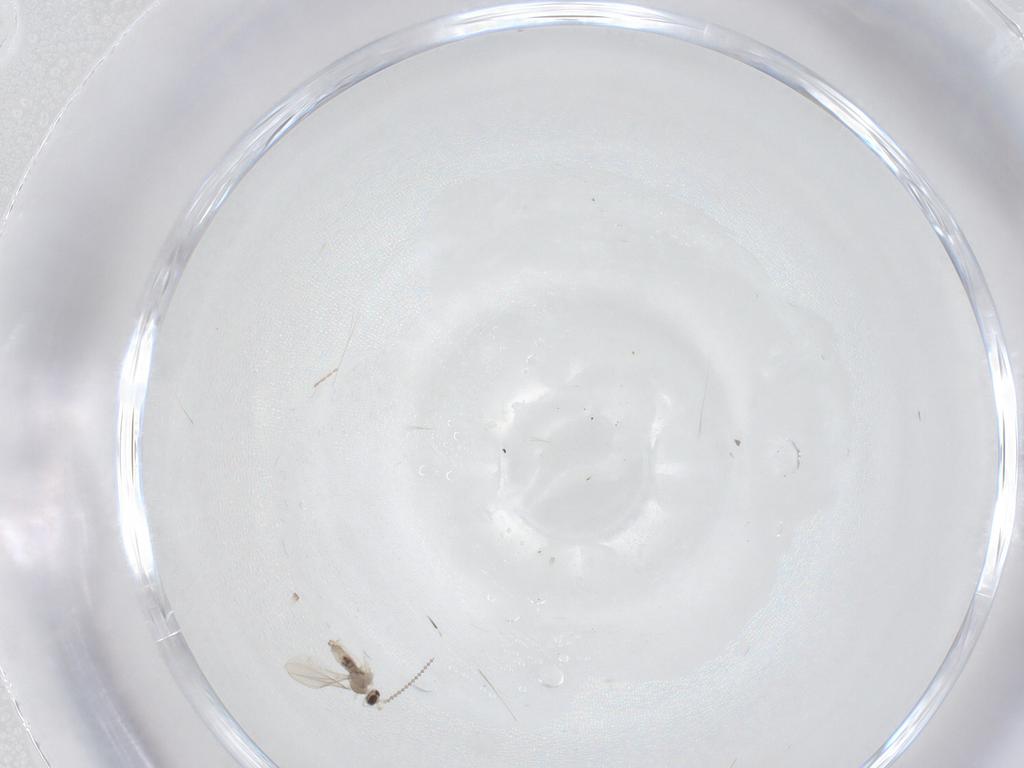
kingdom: Animalia
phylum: Arthropoda
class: Insecta
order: Diptera
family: Cecidomyiidae
